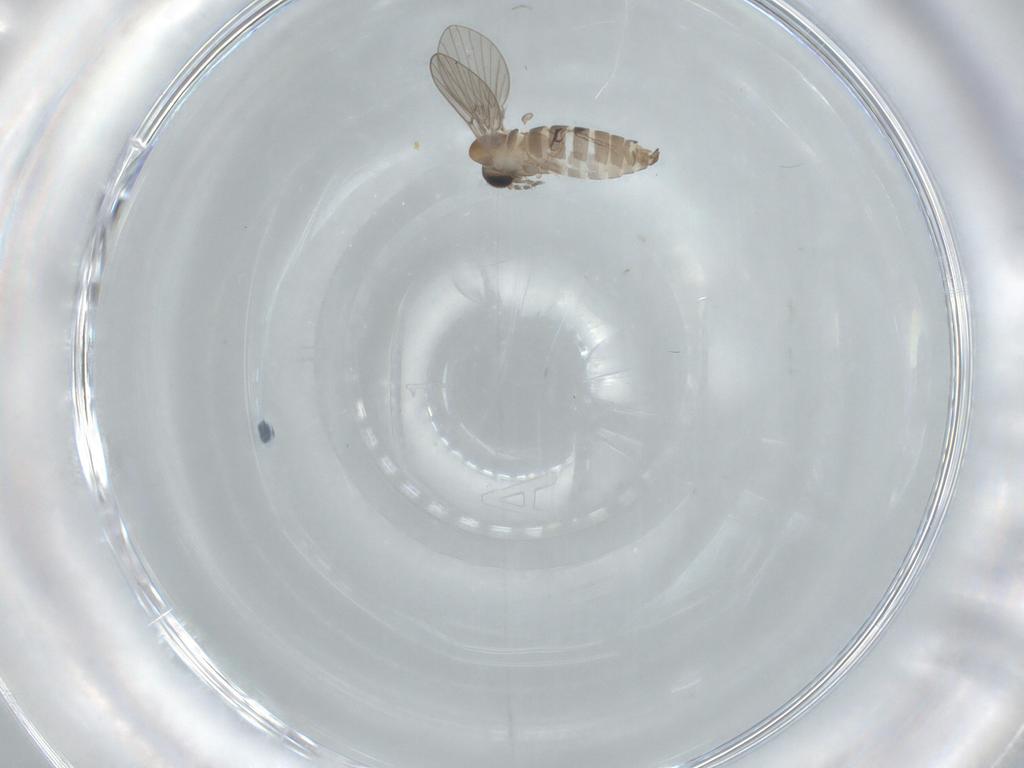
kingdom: Animalia
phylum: Arthropoda
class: Insecta
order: Diptera
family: Psychodidae
